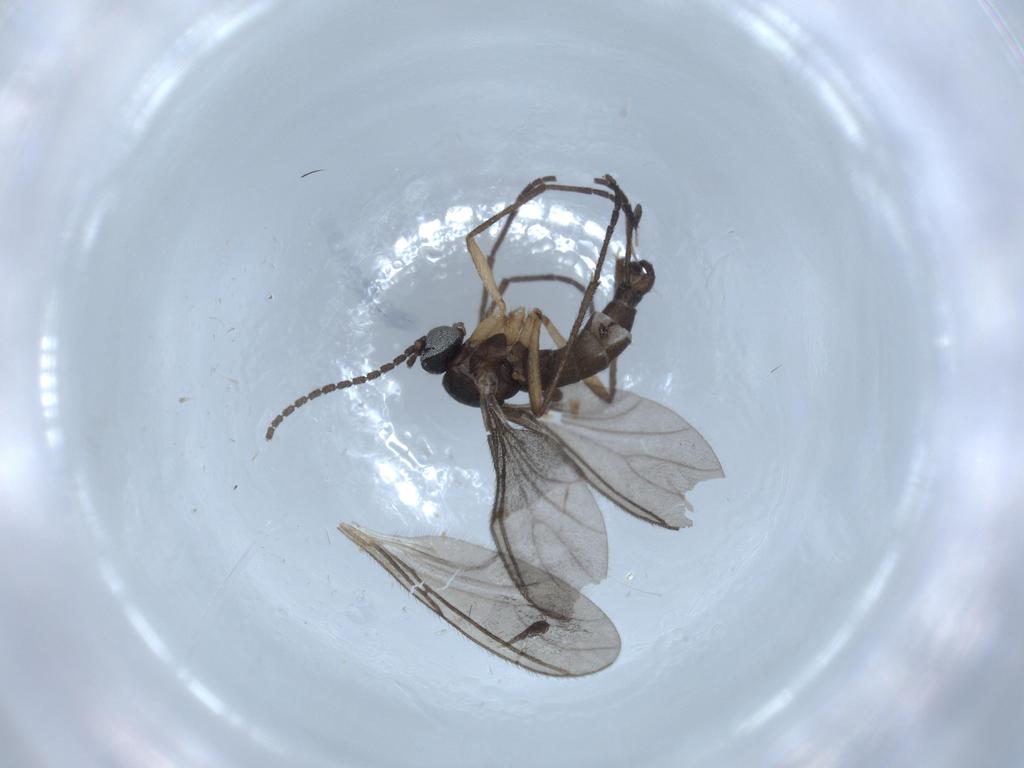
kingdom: Animalia
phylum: Arthropoda
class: Insecta
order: Diptera
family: Sciaridae
